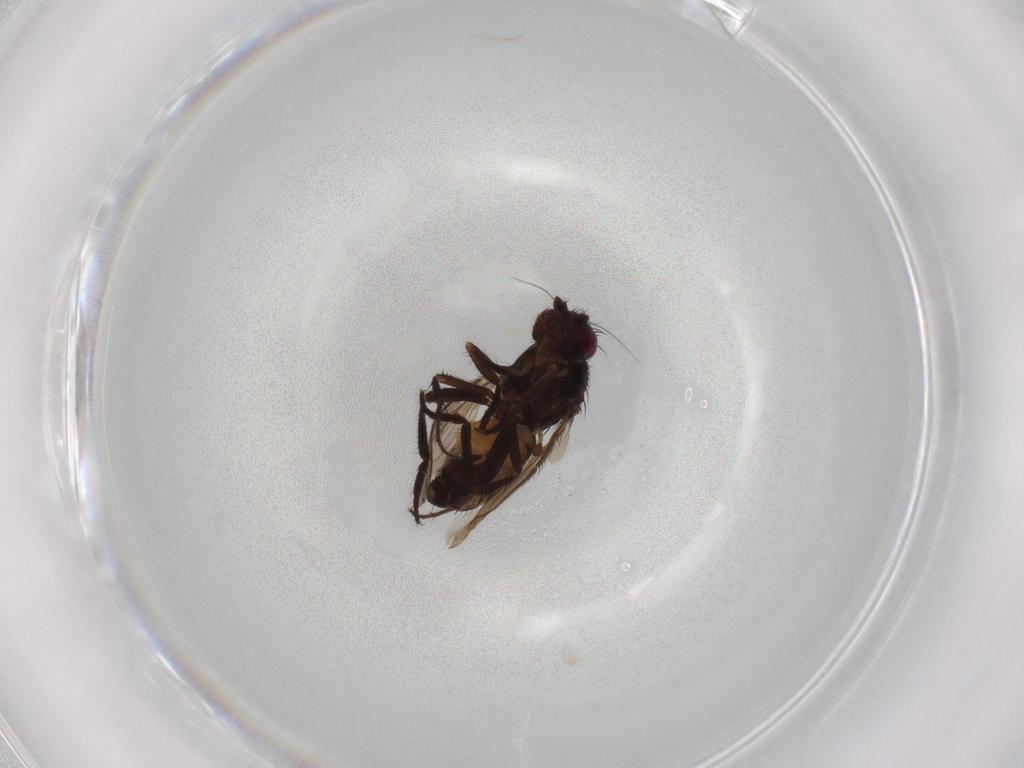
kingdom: Animalia
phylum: Arthropoda
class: Insecta
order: Diptera
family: Sphaeroceridae
